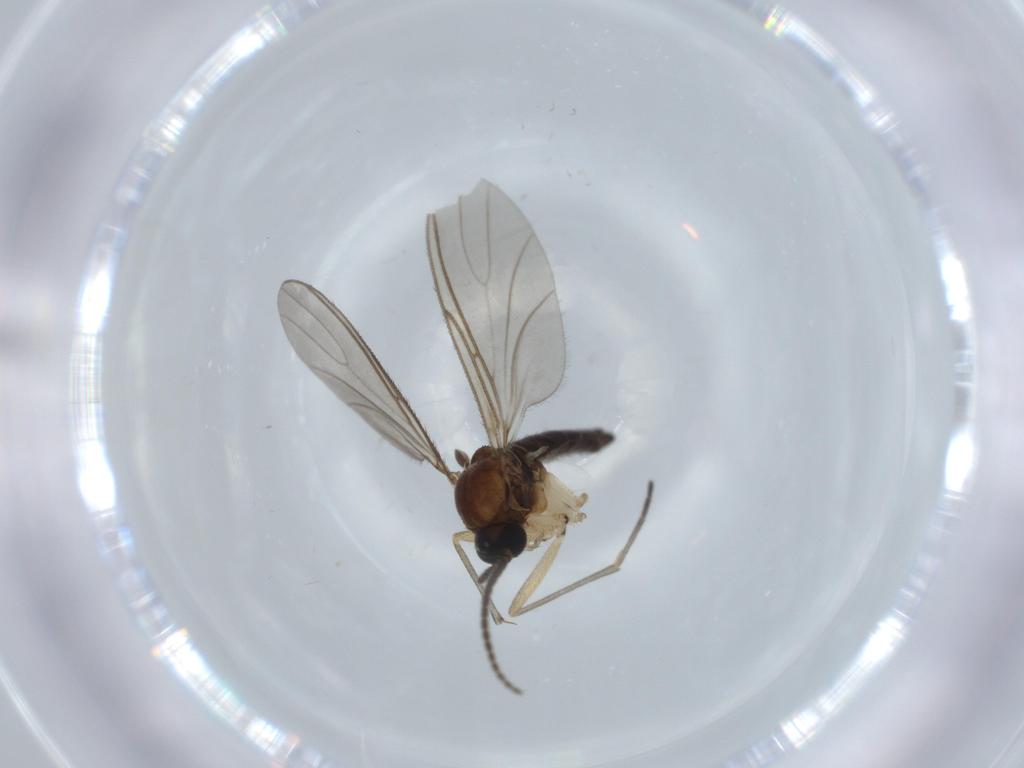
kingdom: Animalia
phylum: Arthropoda
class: Insecta
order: Diptera
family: Sciaridae
